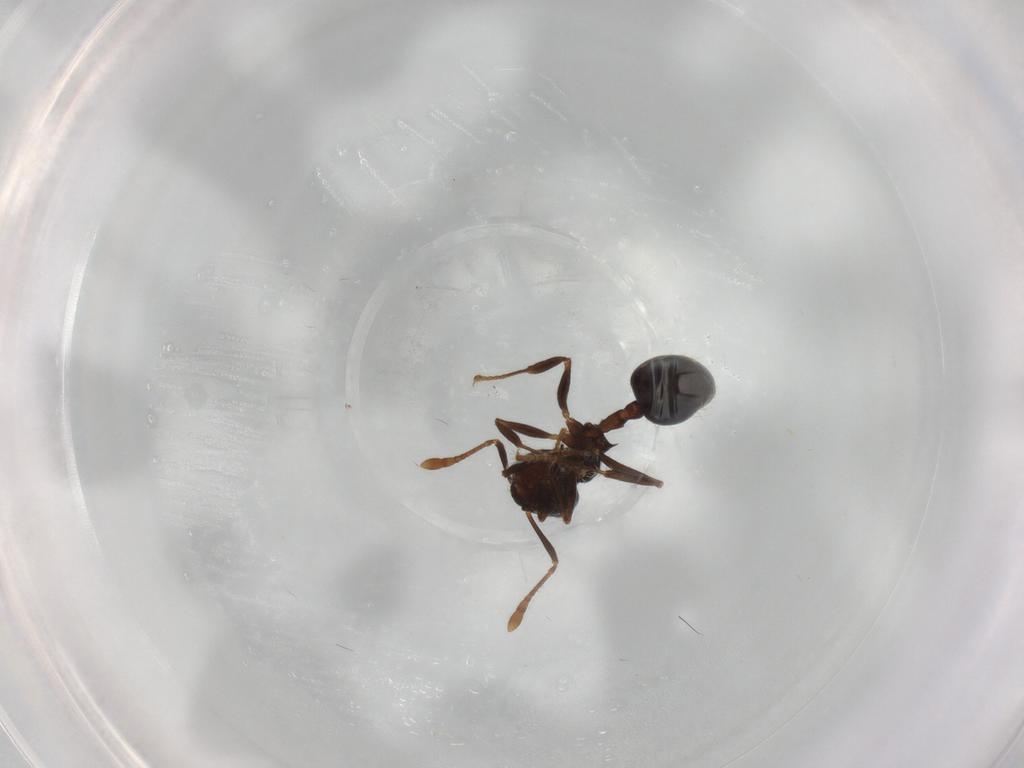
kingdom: Animalia
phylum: Arthropoda
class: Insecta
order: Hymenoptera
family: Formicidae
